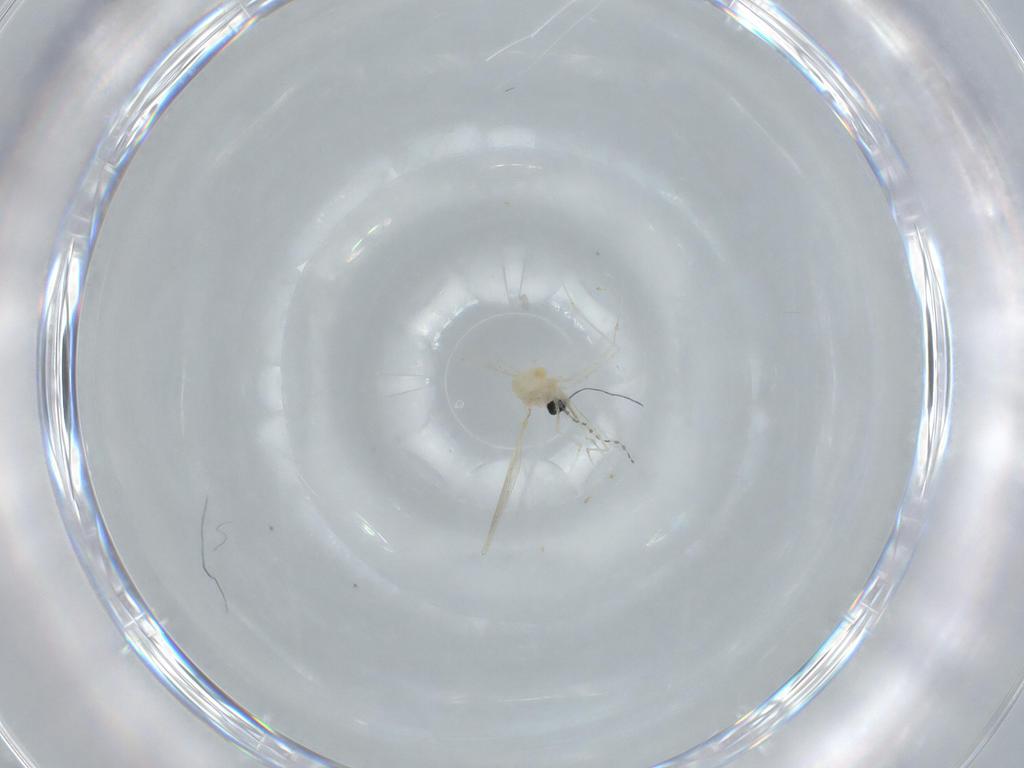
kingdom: Animalia
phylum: Arthropoda
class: Insecta
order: Diptera
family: Cecidomyiidae
